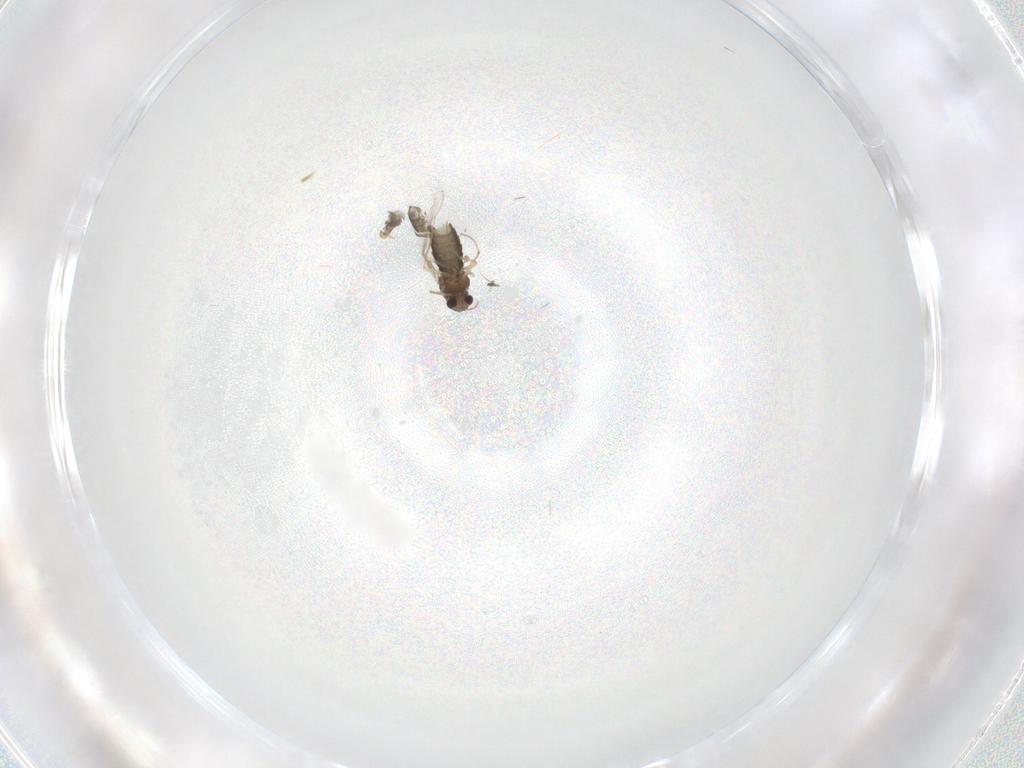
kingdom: Animalia
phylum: Arthropoda
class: Insecta
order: Diptera
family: Chironomidae
